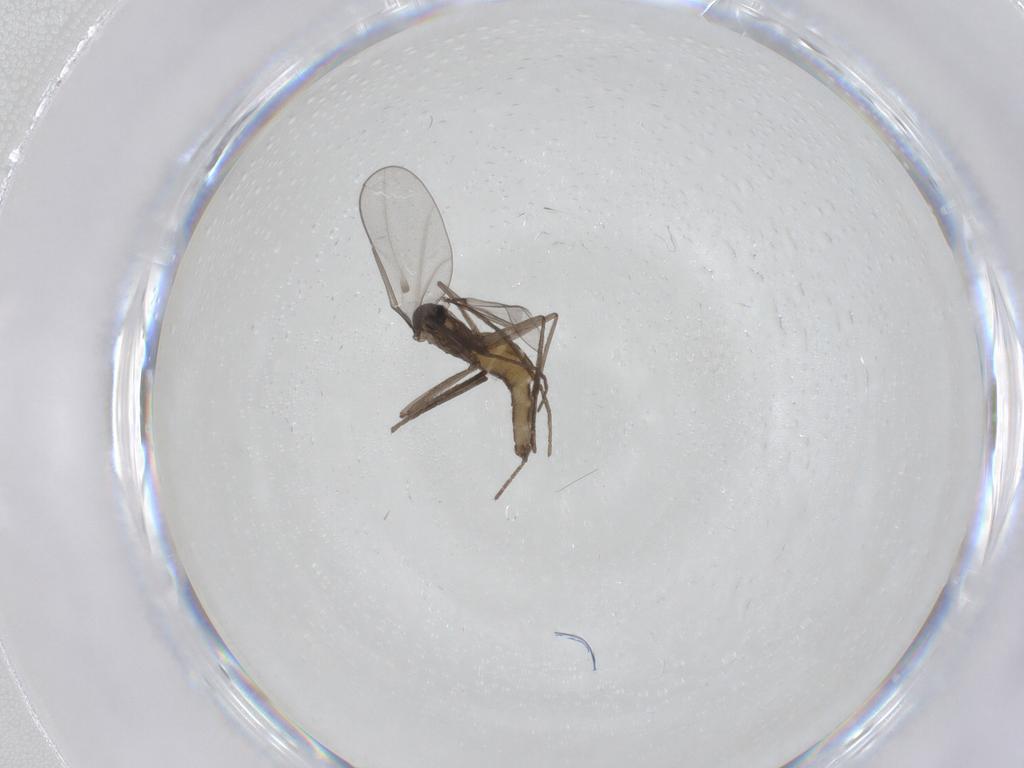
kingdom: Animalia
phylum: Arthropoda
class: Insecta
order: Diptera
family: Cecidomyiidae
